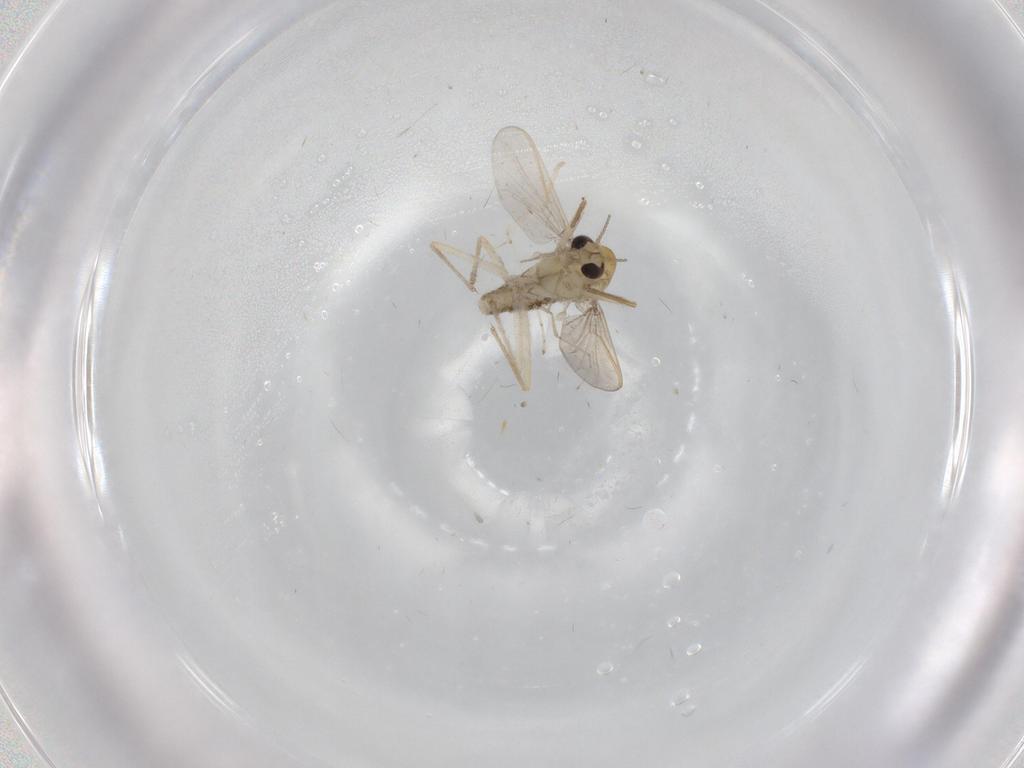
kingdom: Animalia
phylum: Arthropoda
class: Insecta
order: Diptera
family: Chironomidae
